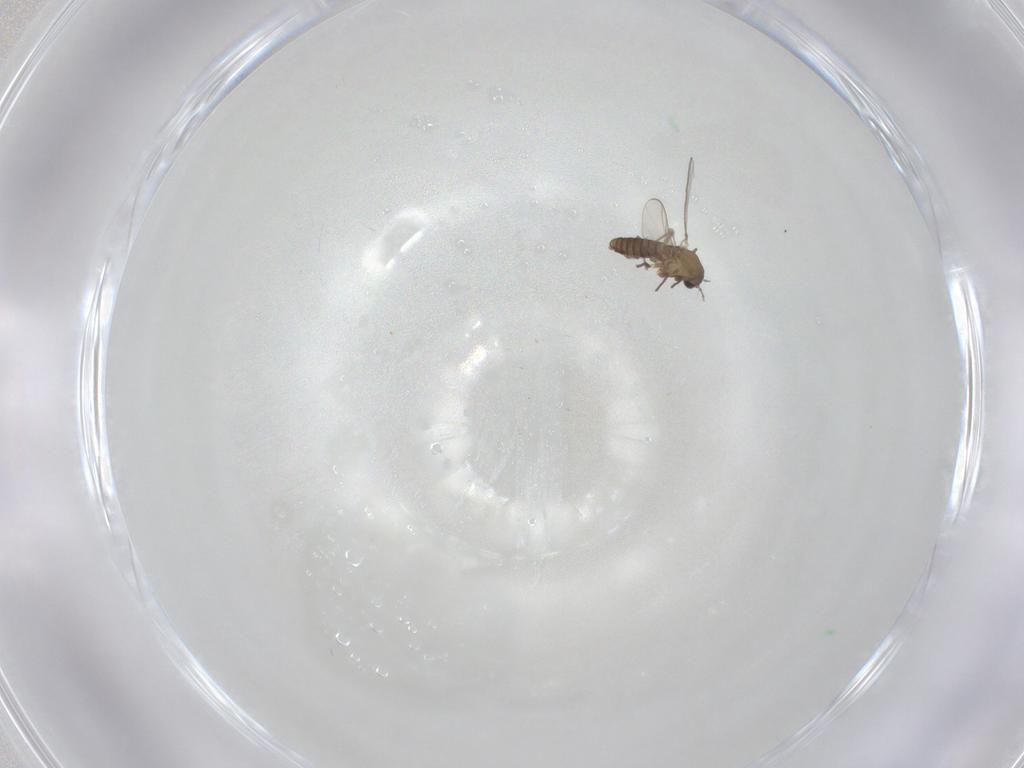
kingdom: Animalia
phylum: Arthropoda
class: Insecta
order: Diptera
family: Chironomidae
